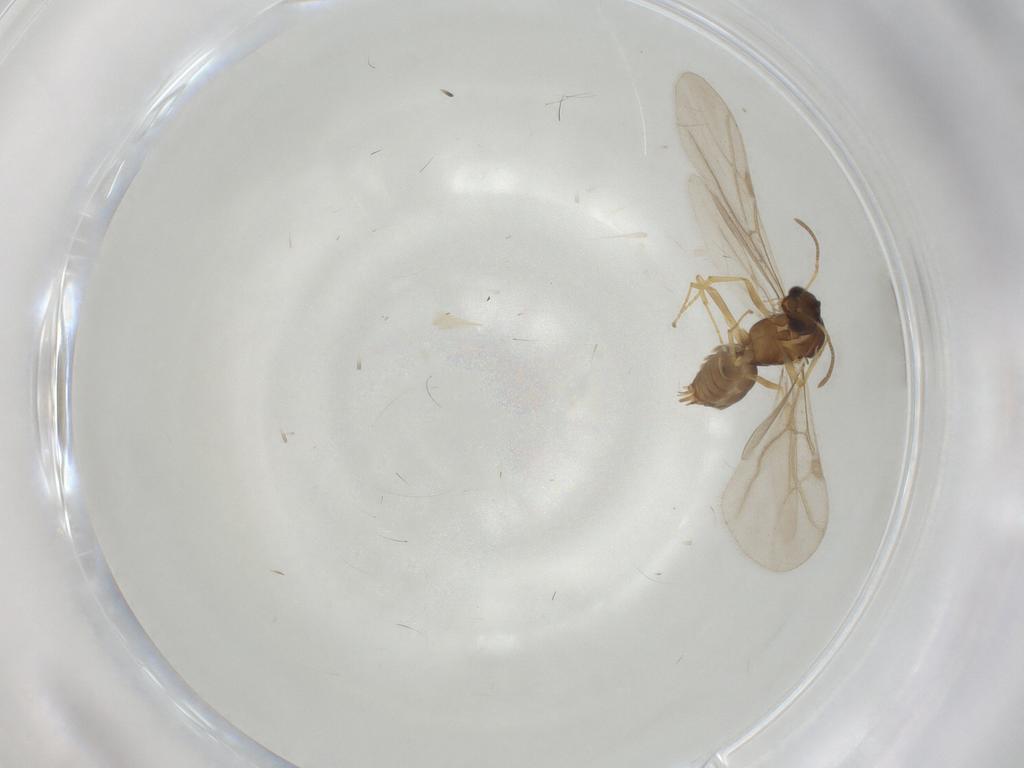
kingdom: Animalia
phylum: Arthropoda
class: Insecta
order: Hymenoptera
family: Formicidae
